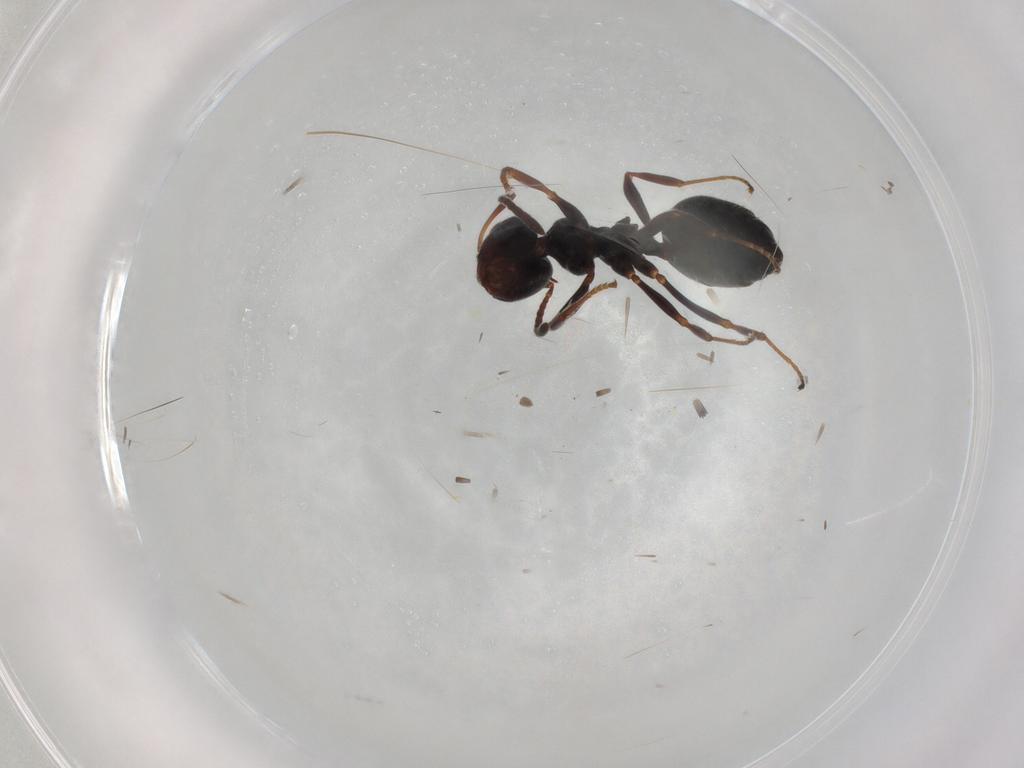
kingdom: Animalia
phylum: Arthropoda
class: Insecta
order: Hymenoptera
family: Formicidae
